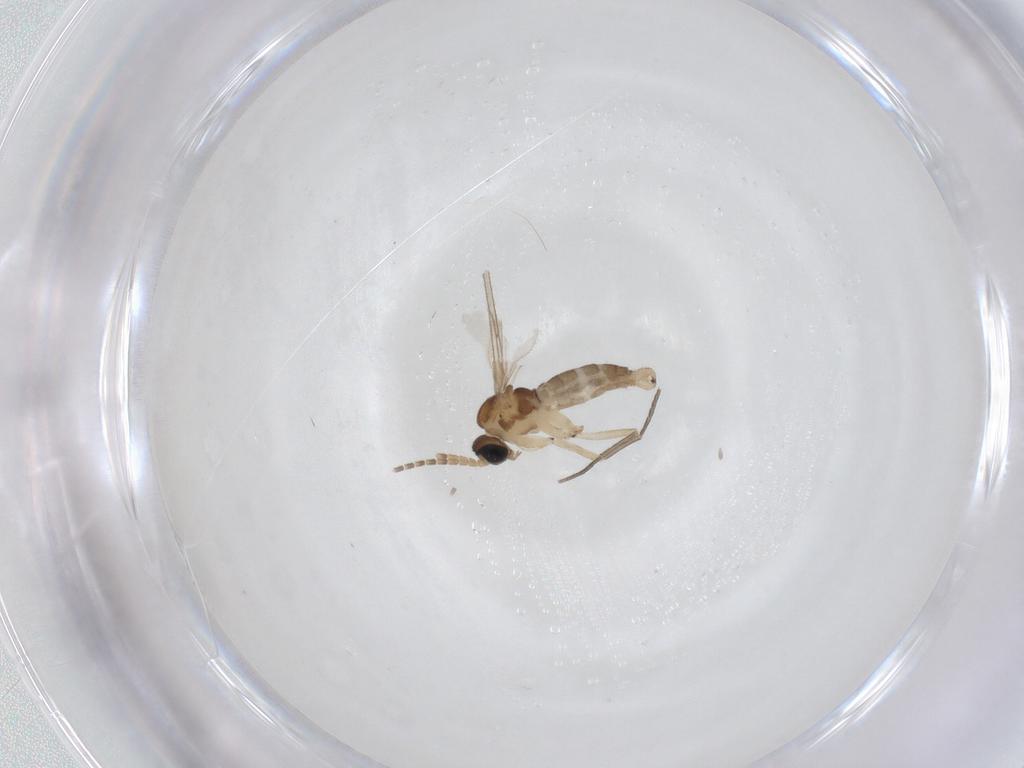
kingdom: Animalia
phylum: Arthropoda
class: Insecta
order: Diptera
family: Sciaridae
